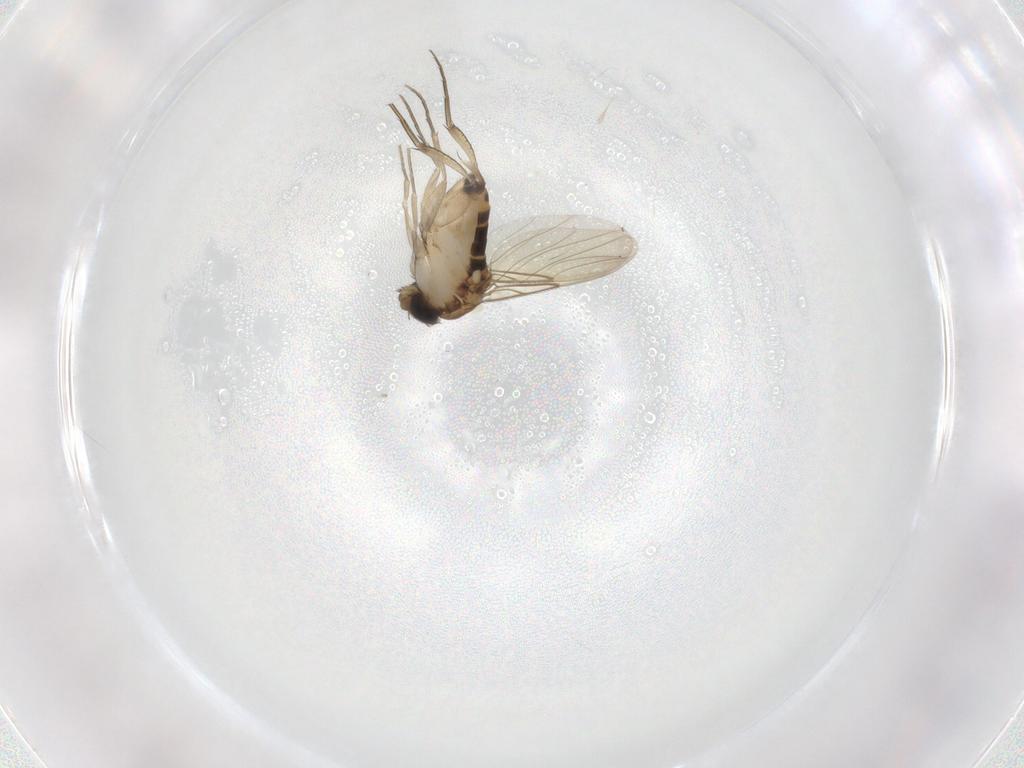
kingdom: Animalia
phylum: Arthropoda
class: Insecta
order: Diptera
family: Phoridae
